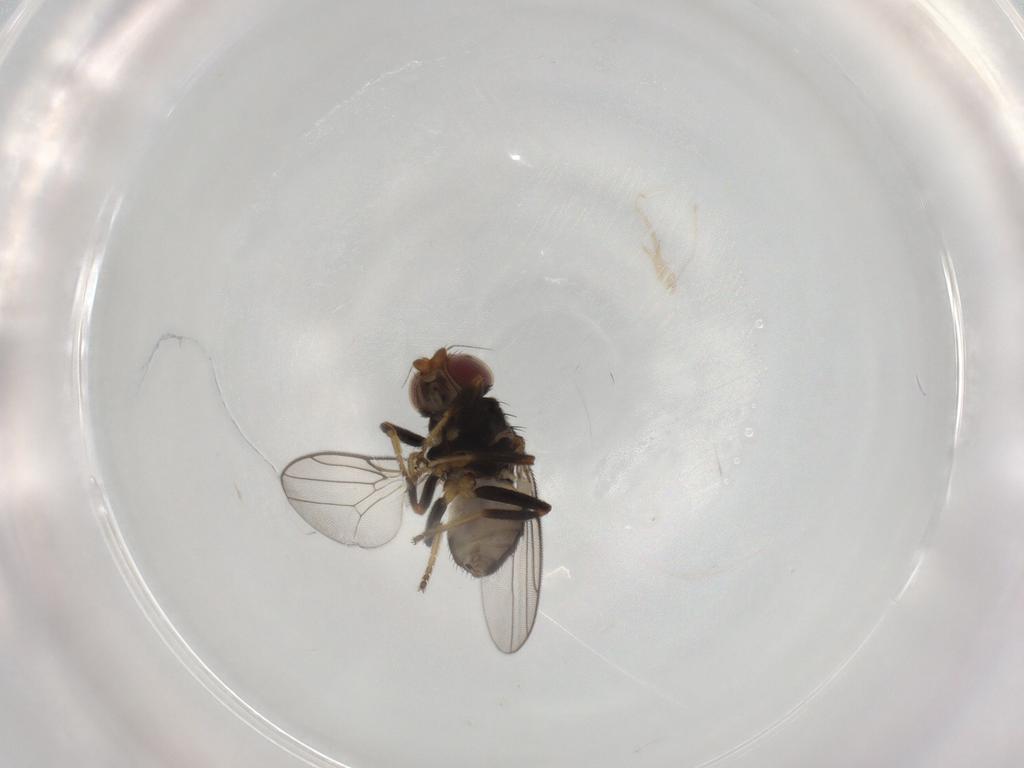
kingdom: Animalia
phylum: Arthropoda
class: Insecta
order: Diptera
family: Chloropidae
